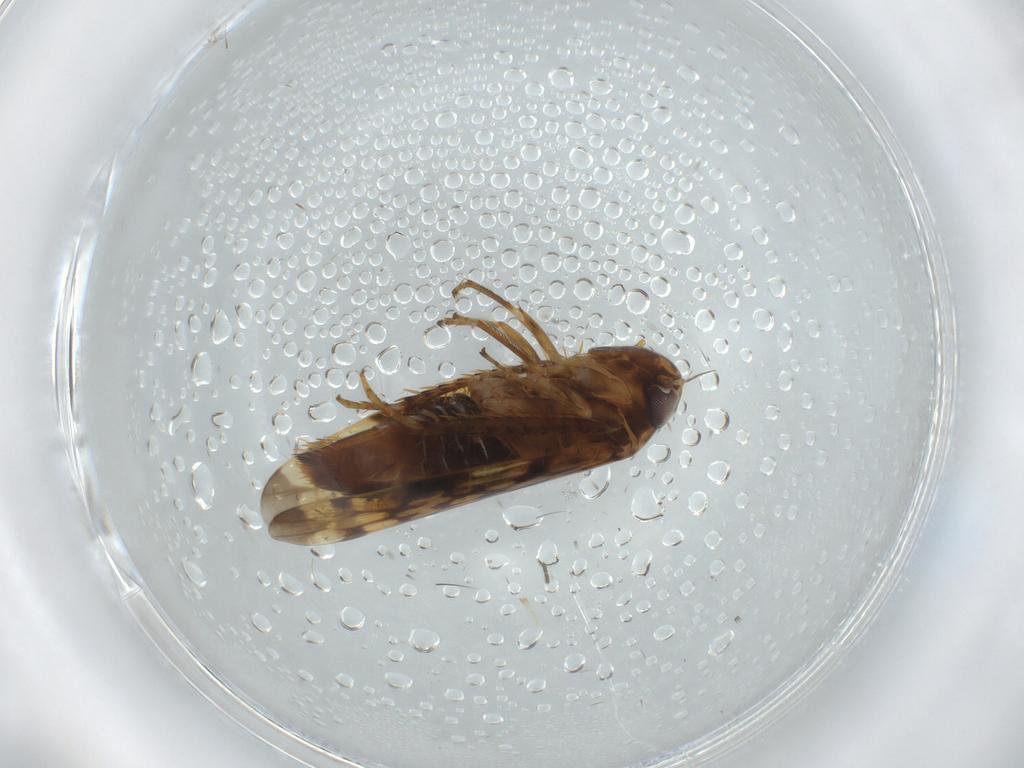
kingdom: Animalia
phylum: Arthropoda
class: Insecta
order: Hemiptera
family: Cicadellidae
